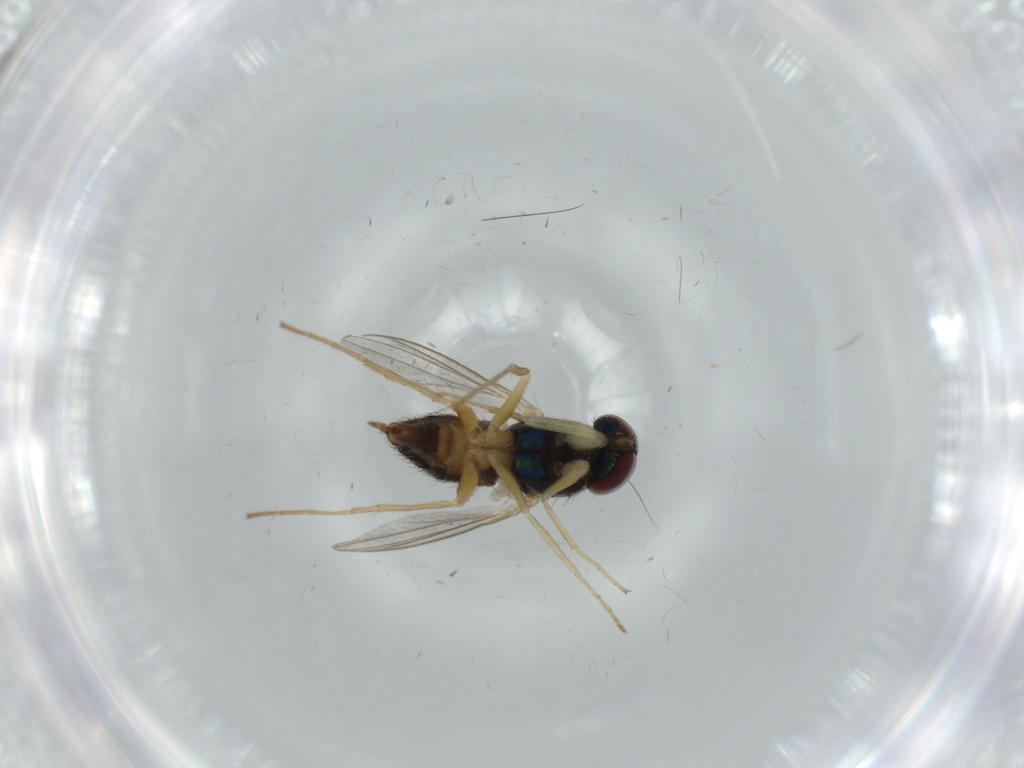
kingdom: Animalia
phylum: Arthropoda
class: Insecta
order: Diptera
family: Dolichopodidae
